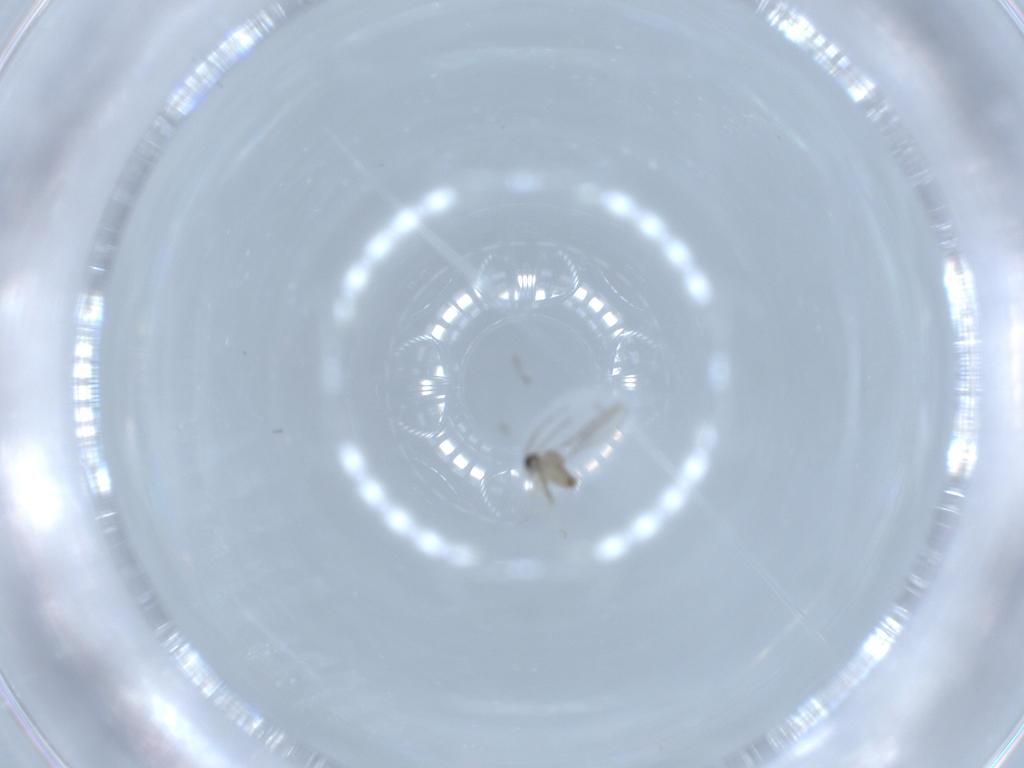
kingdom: Animalia
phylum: Arthropoda
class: Insecta
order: Diptera
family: Cecidomyiidae
